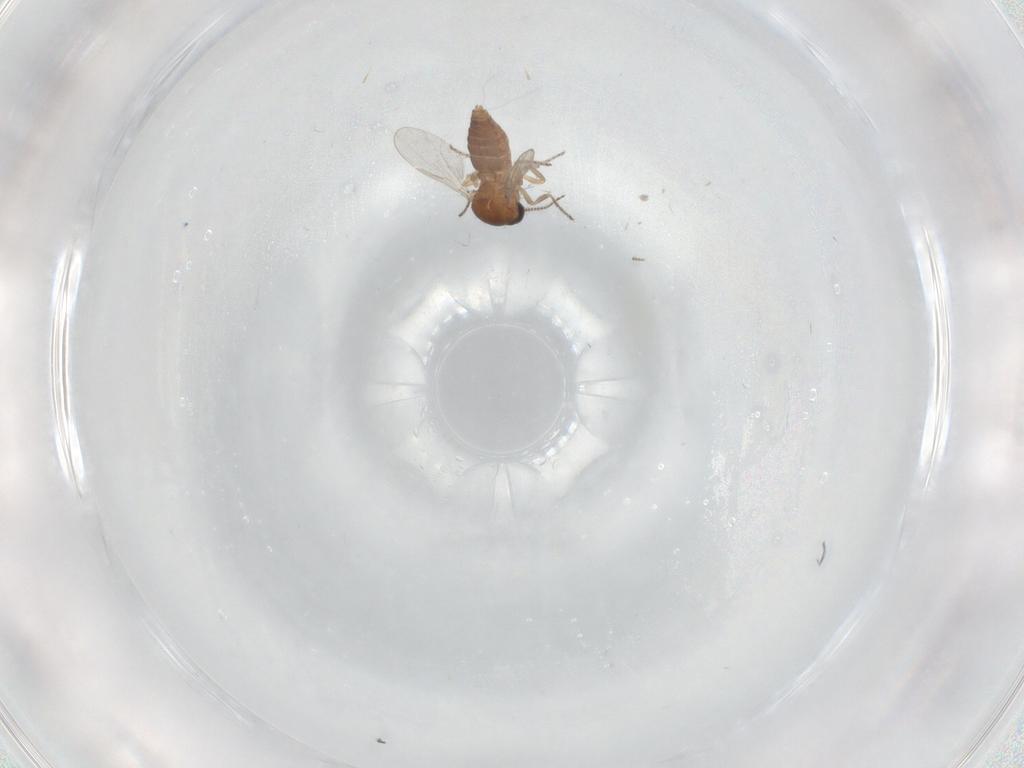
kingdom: Animalia
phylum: Arthropoda
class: Insecta
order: Diptera
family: Ceratopogonidae
